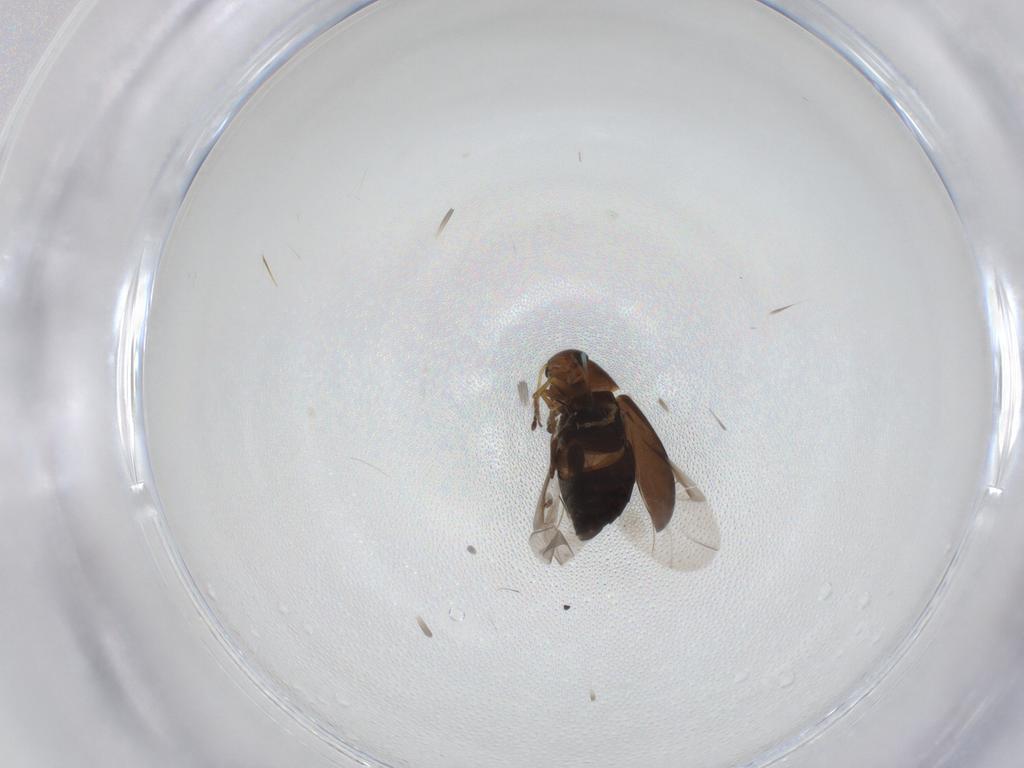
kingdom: Animalia
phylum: Arthropoda
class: Insecta
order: Coleoptera
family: Scraptiidae
